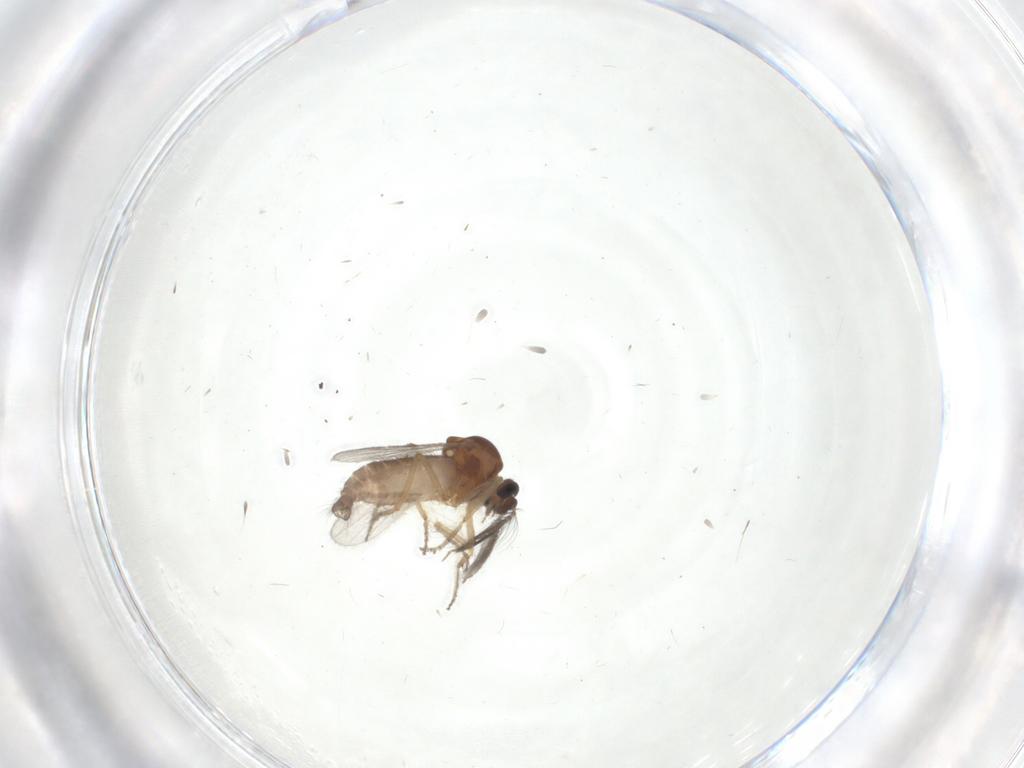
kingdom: Animalia
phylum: Arthropoda
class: Insecta
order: Diptera
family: Ceratopogonidae
